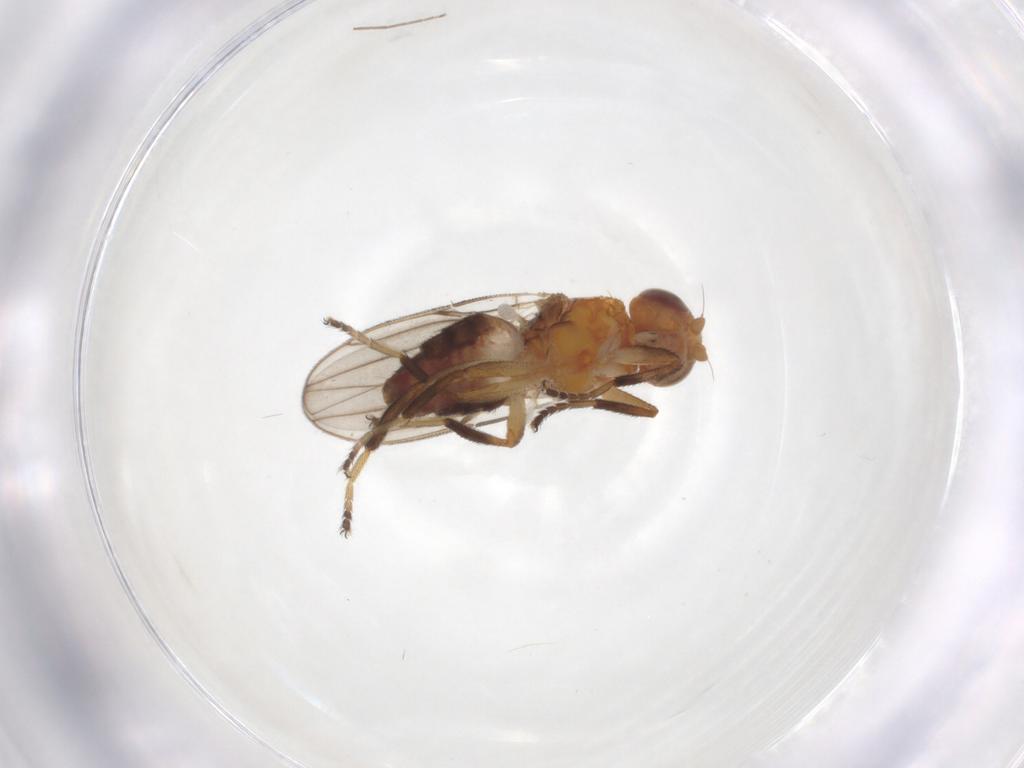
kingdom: Animalia
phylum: Arthropoda
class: Insecta
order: Diptera
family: Chloropidae
